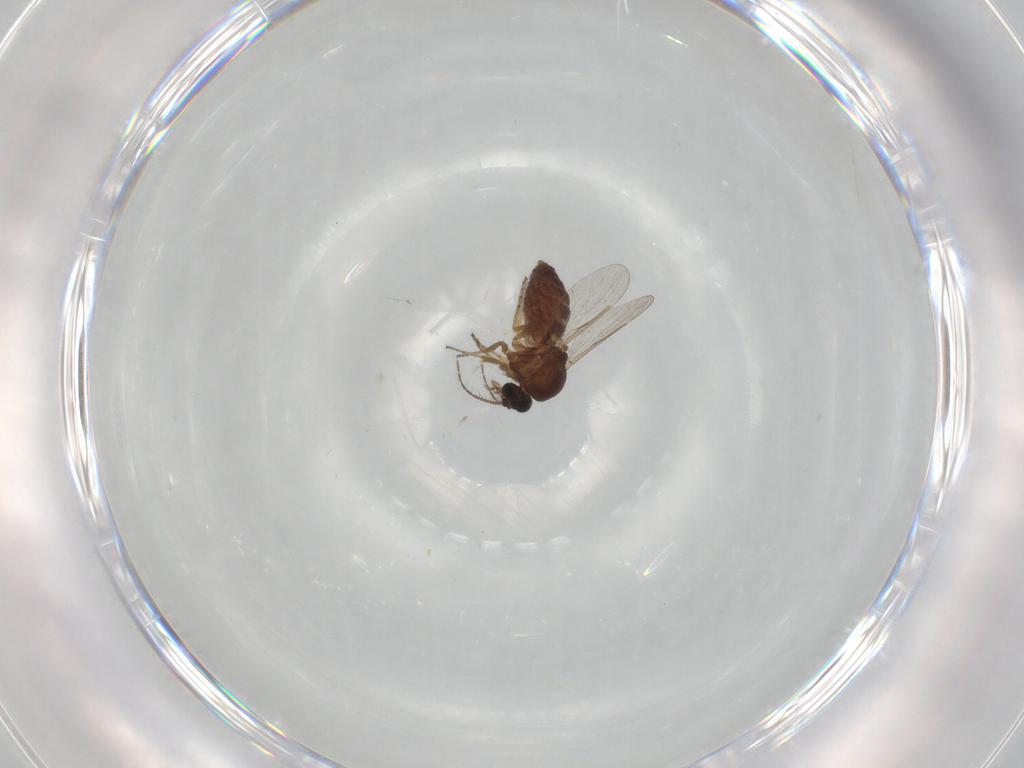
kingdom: Animalia
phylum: Arthropoda
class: Insecta
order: Diptera
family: Ceratopogonidae
